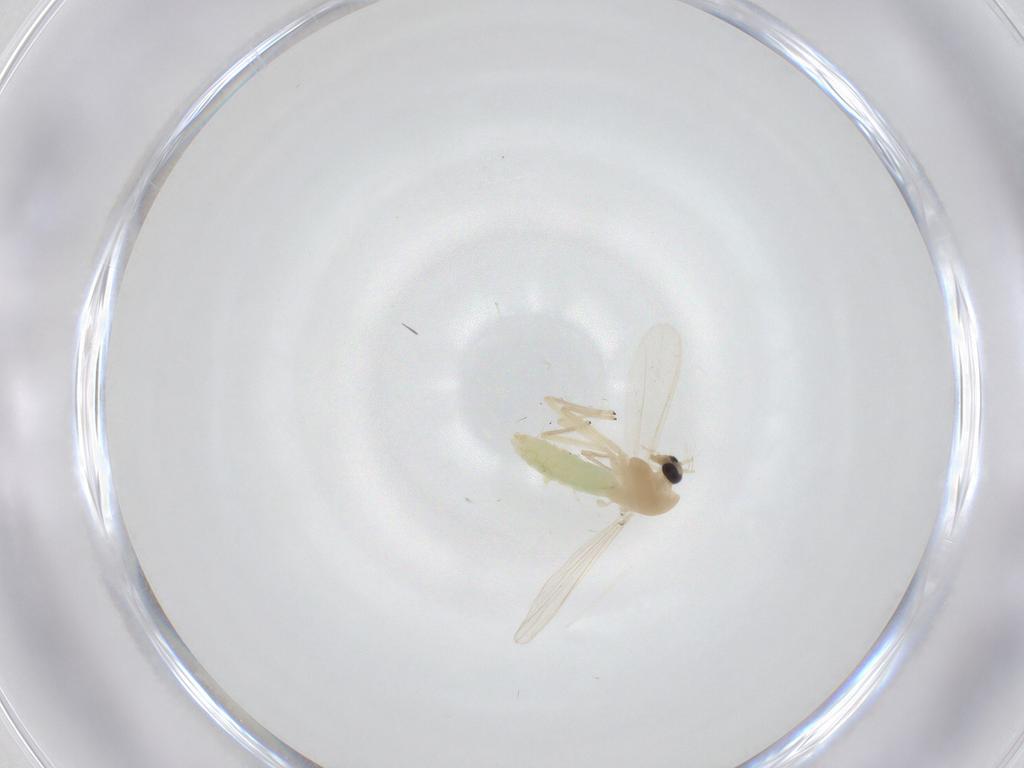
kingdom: Animalia
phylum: Arthropoda
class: Insecta
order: Diptera
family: Chironomidae
